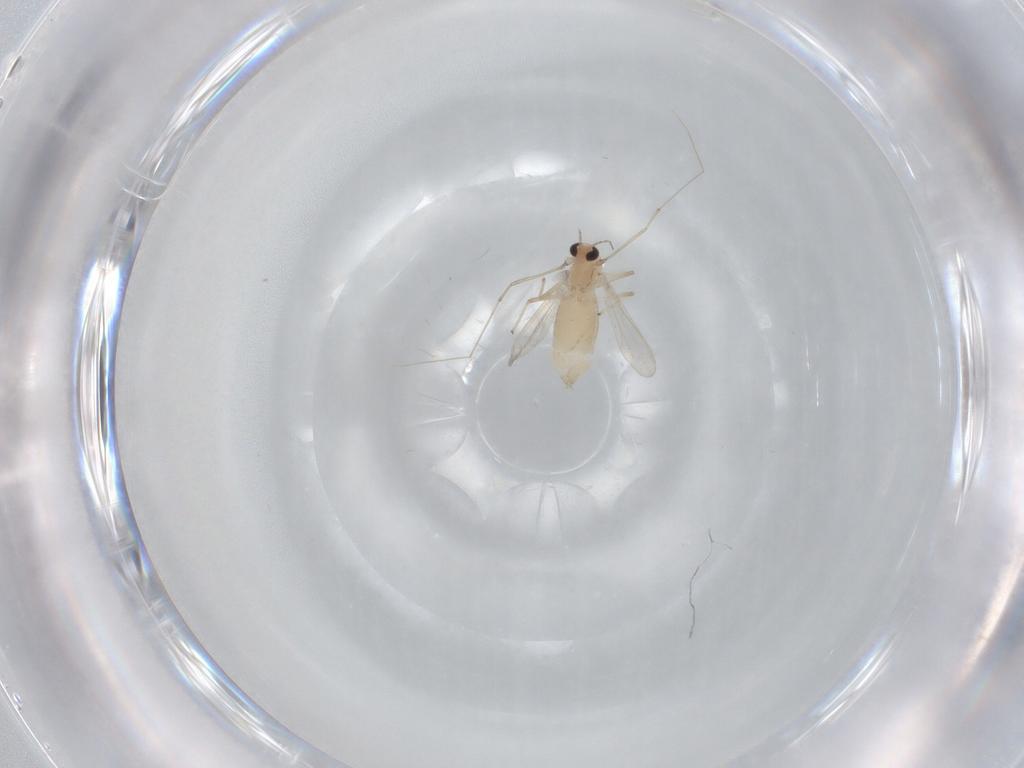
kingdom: Animalia
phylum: Arthropoda
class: Insecta
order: Diptera
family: Chironomidae
